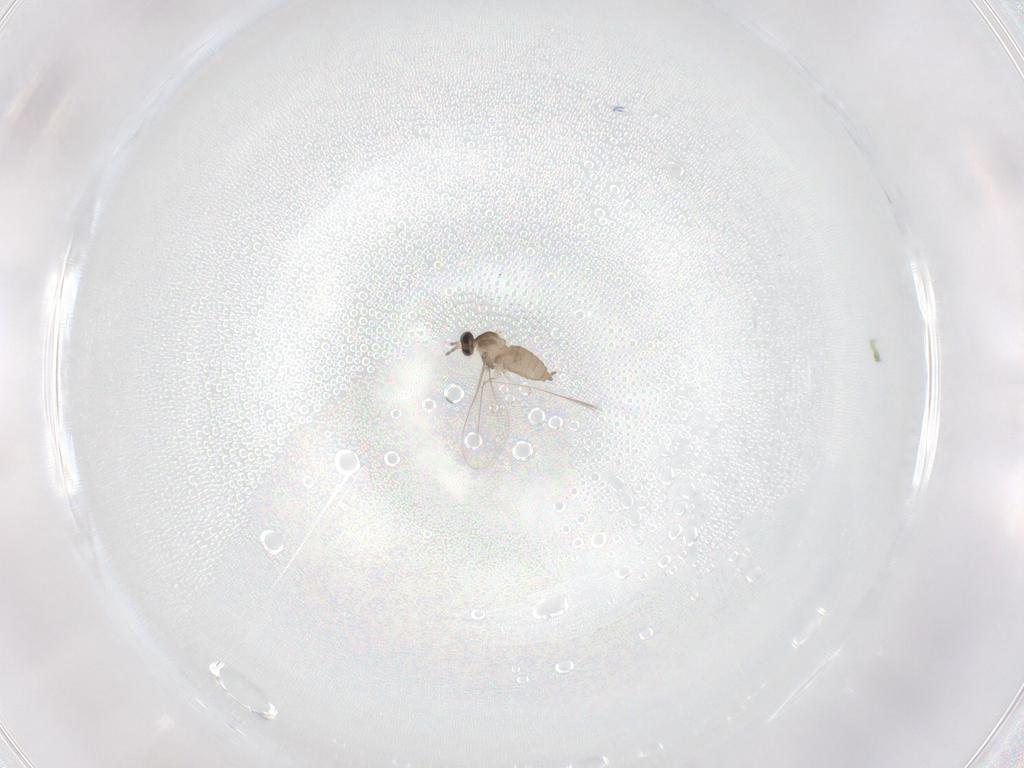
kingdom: Animalia
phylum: Arthropoda
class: Insecta
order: Diptera
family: Cecidomyiidae
